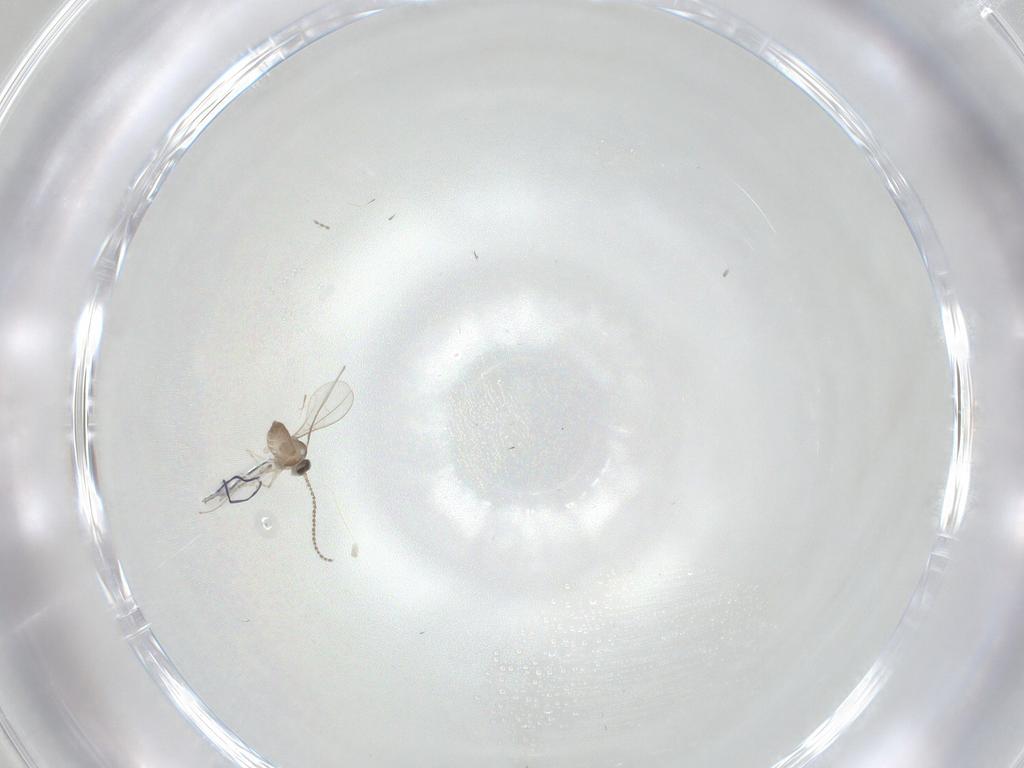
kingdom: Animalia
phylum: Arthropoda
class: Insecta
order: Diptera
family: Cecidomyiidae
